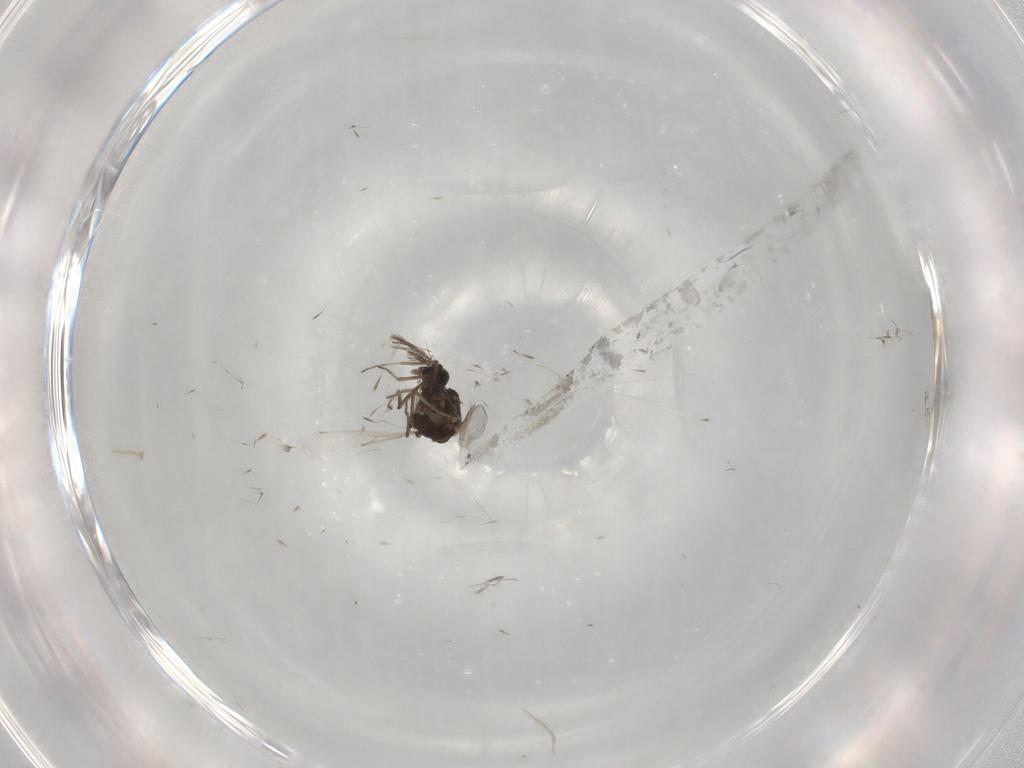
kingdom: Animalia
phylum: Arthropoda
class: Insecta
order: Diptera
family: Ceratopogonidae
